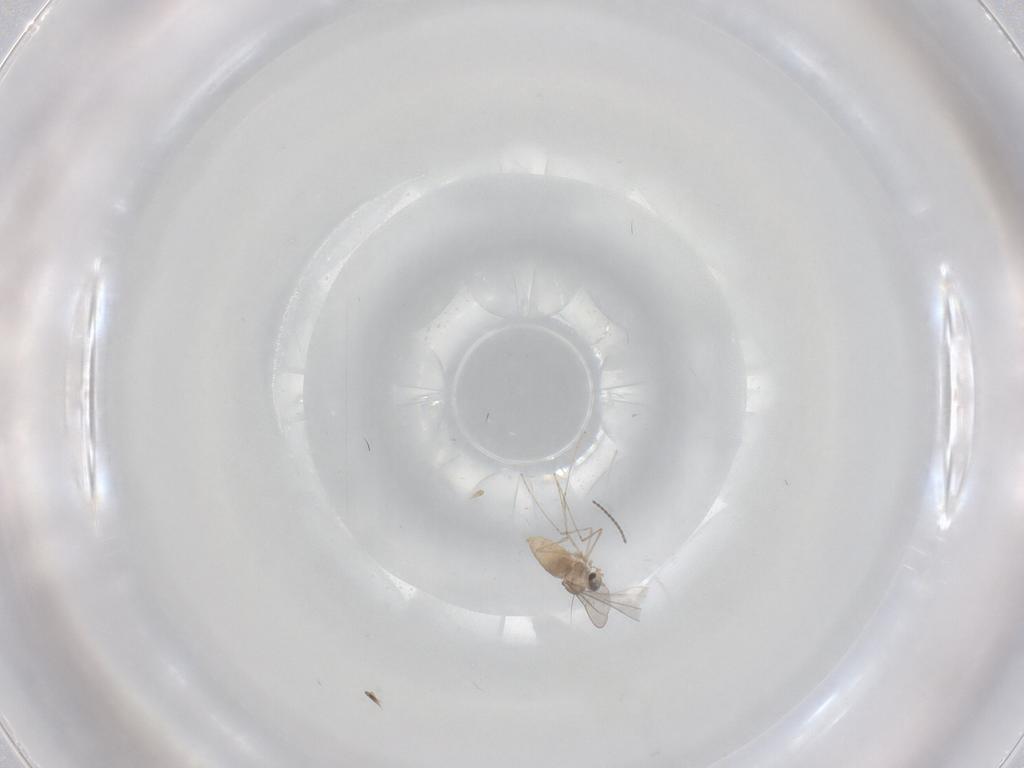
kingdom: Animalia
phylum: Arthropoda
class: Insecta
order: Diptera
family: Cecidomyiidae
